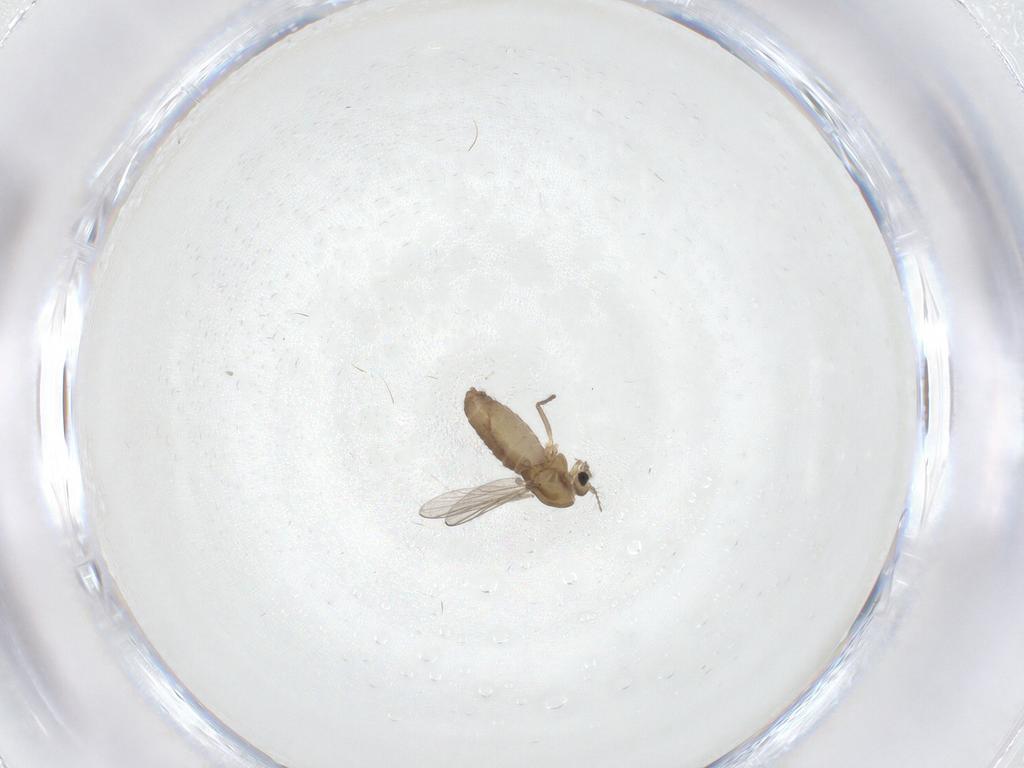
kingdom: Animalia
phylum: Arthropoda
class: Insecta
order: Diptera
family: Chironomidae
